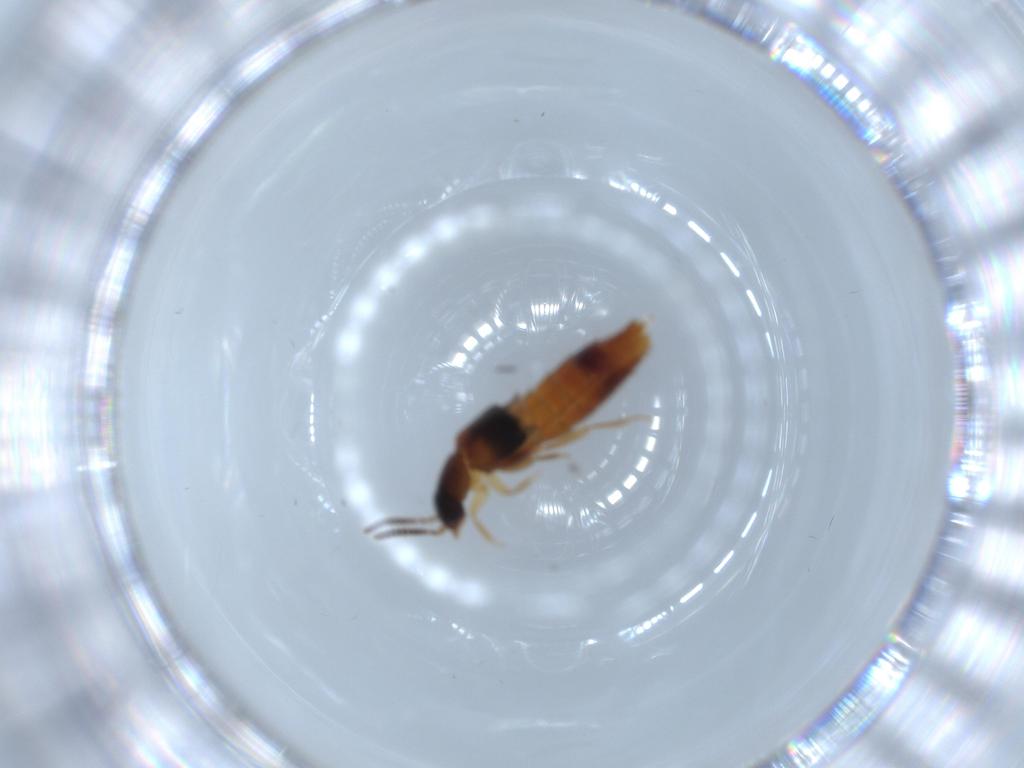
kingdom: Animalia
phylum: Arthropoda
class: Insecta
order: Coleoptera
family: Staphylinidae
